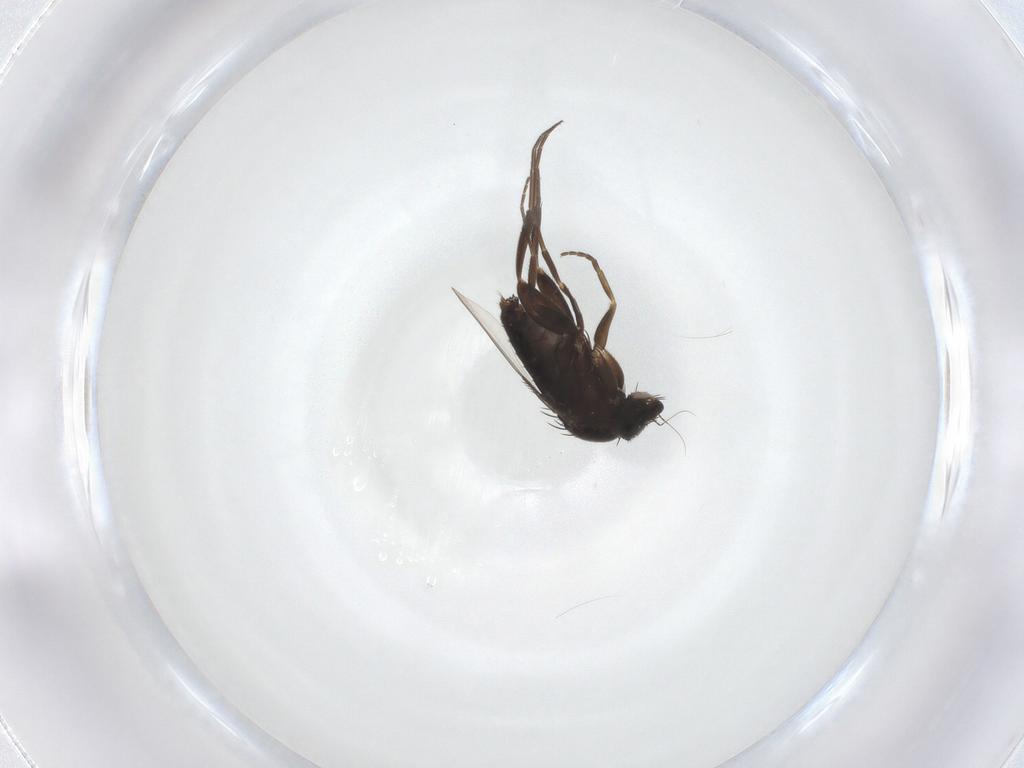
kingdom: Animalia
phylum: Arthropoda
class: Insecta
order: Diptera
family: Phoridae
